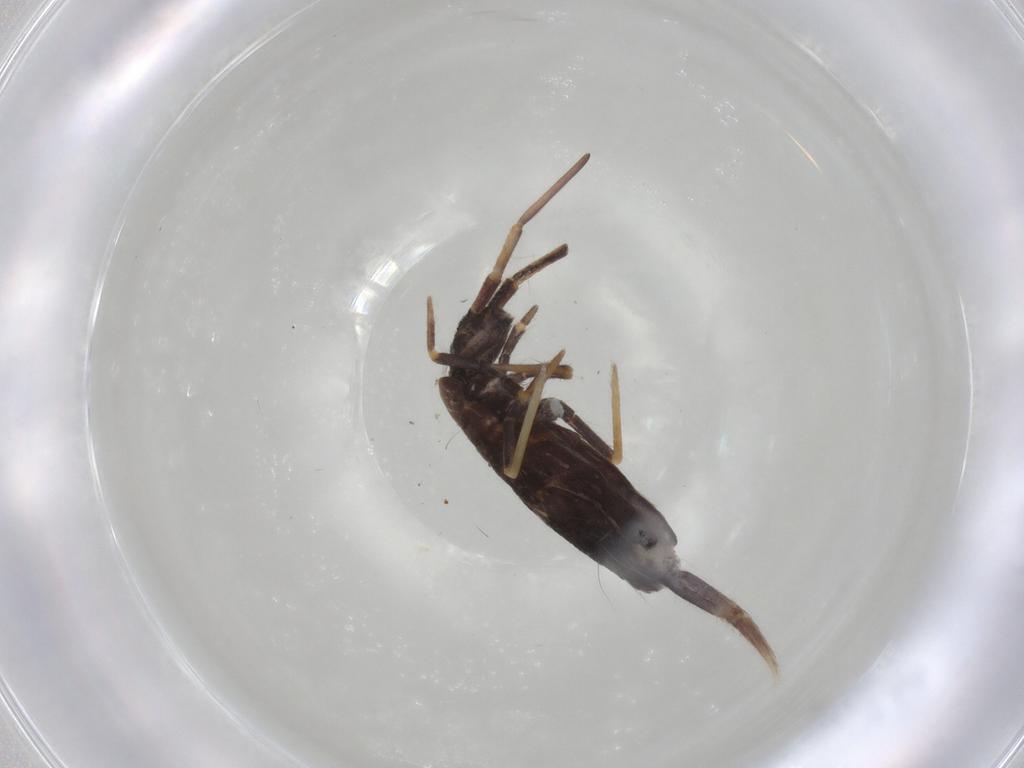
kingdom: Animalia
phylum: Arthropoda
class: Collembola
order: Entomobryomorpha
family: Entomobryidae
